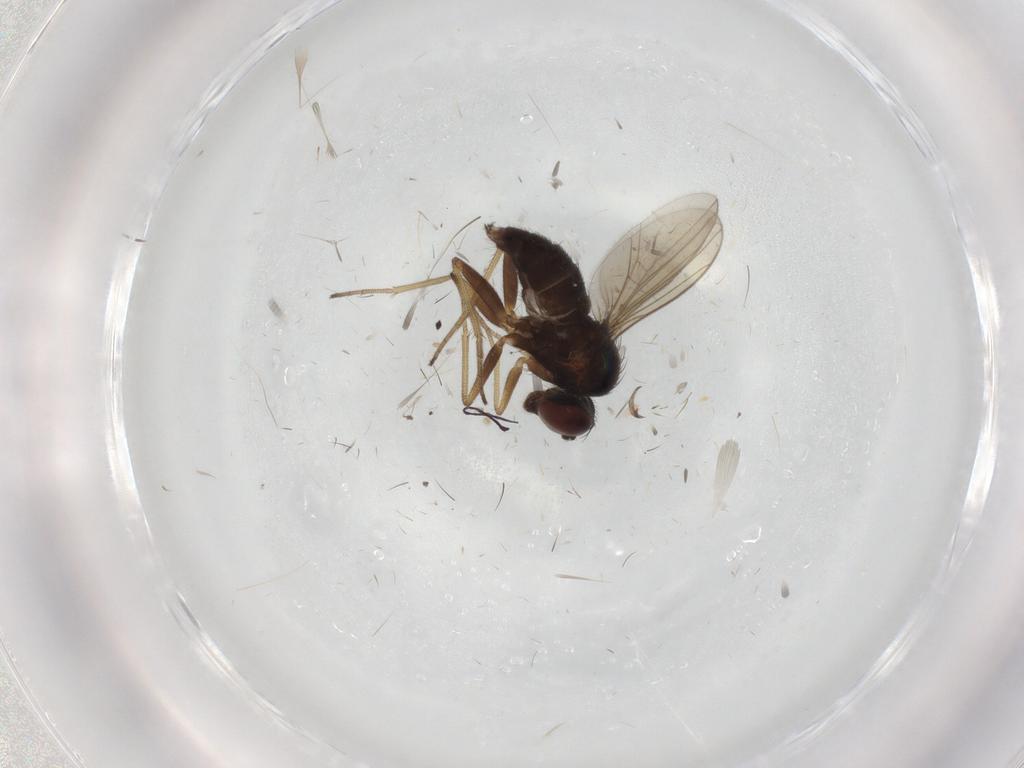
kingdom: Animalia
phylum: Arthropoda
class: Insecta
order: Diptera
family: Dolichopodidae
